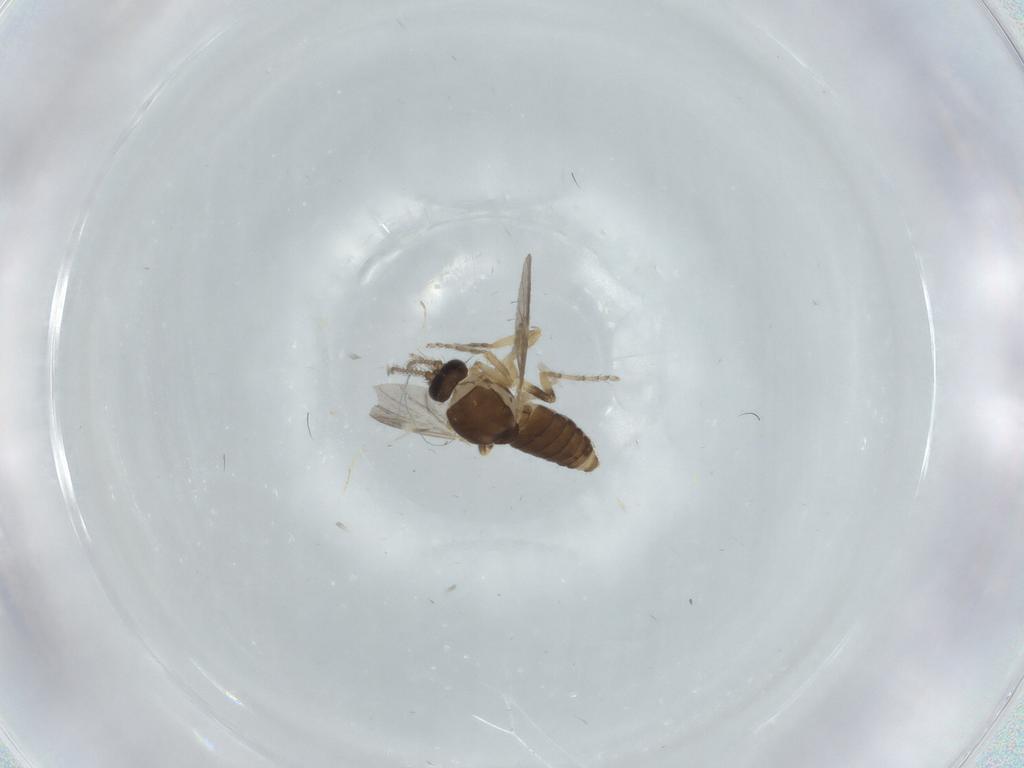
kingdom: Animalia
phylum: Arthropoda
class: Insecta
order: Diptera
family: Ceratopogonidae
